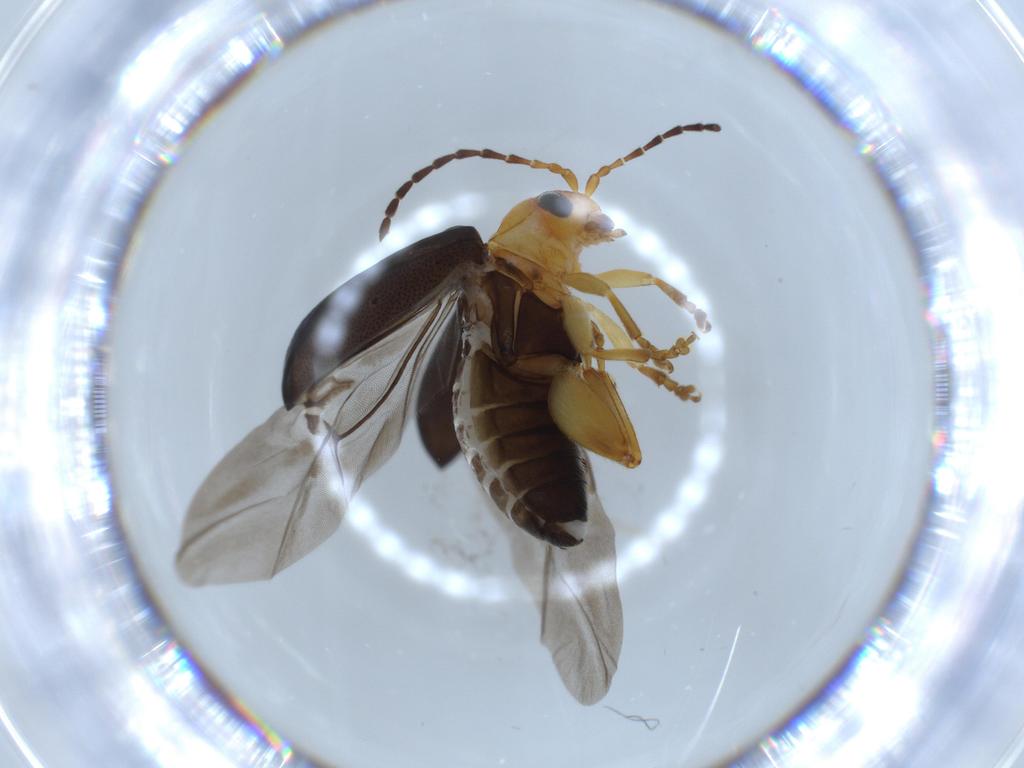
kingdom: Animalia
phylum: Arthropoda
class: Insecta
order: Coleoptera
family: Chrysomelidae
